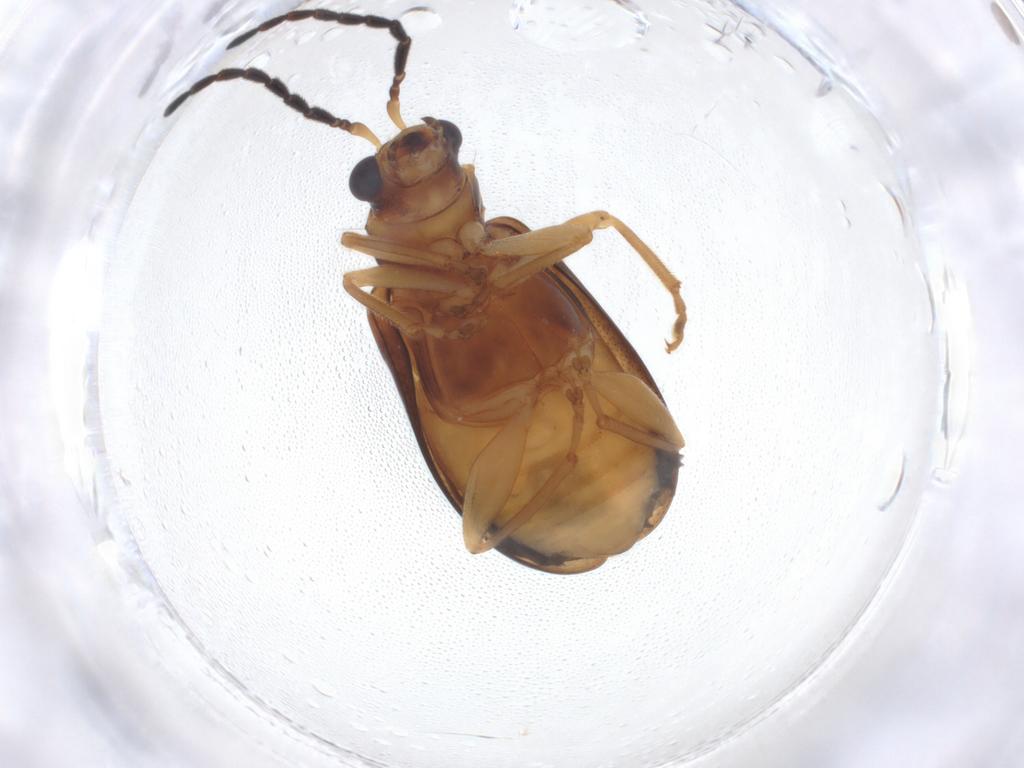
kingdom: Animalia
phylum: Arthropoda
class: Insecta
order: Coleoptera
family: Chrysomelidae
